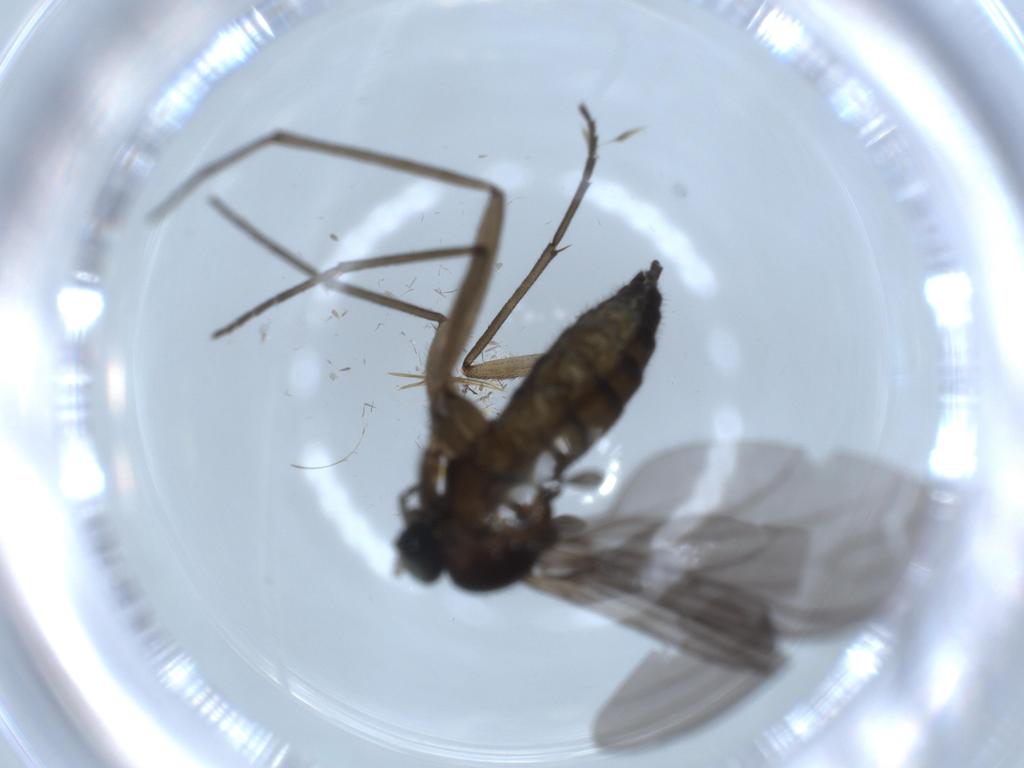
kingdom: Animalia
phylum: Arthropoda
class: Insecta
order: Diptera
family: Sciaridae
